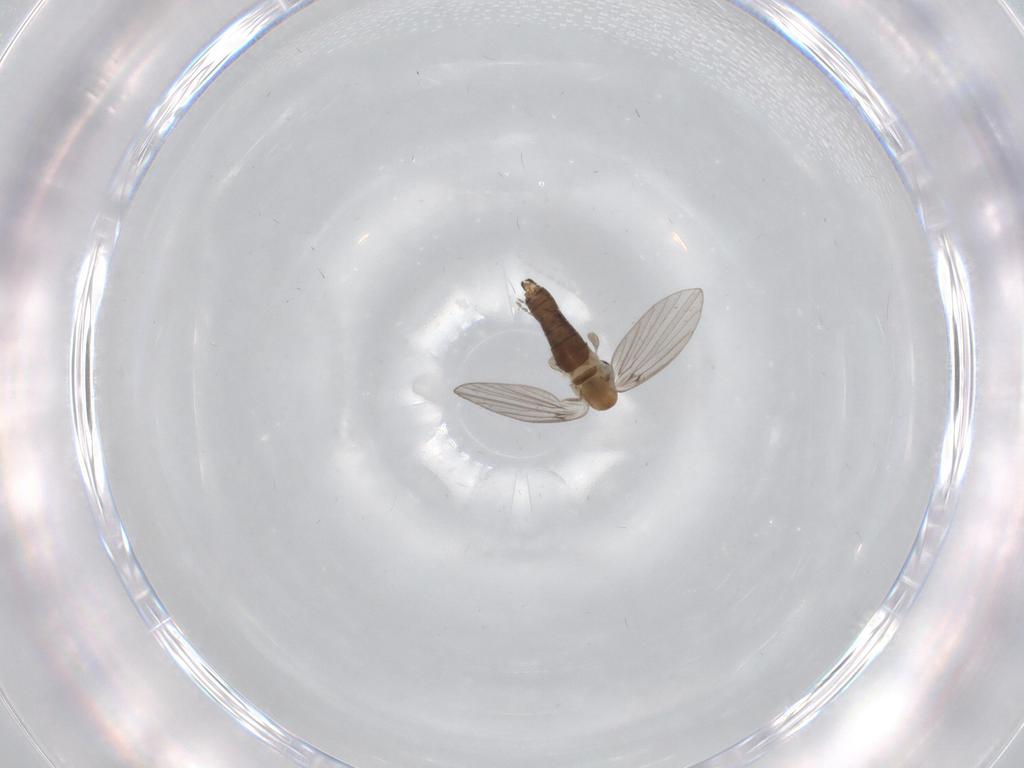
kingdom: Animalia
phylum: Arthropoda
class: Insecta
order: Diptera
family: Psychodidae
